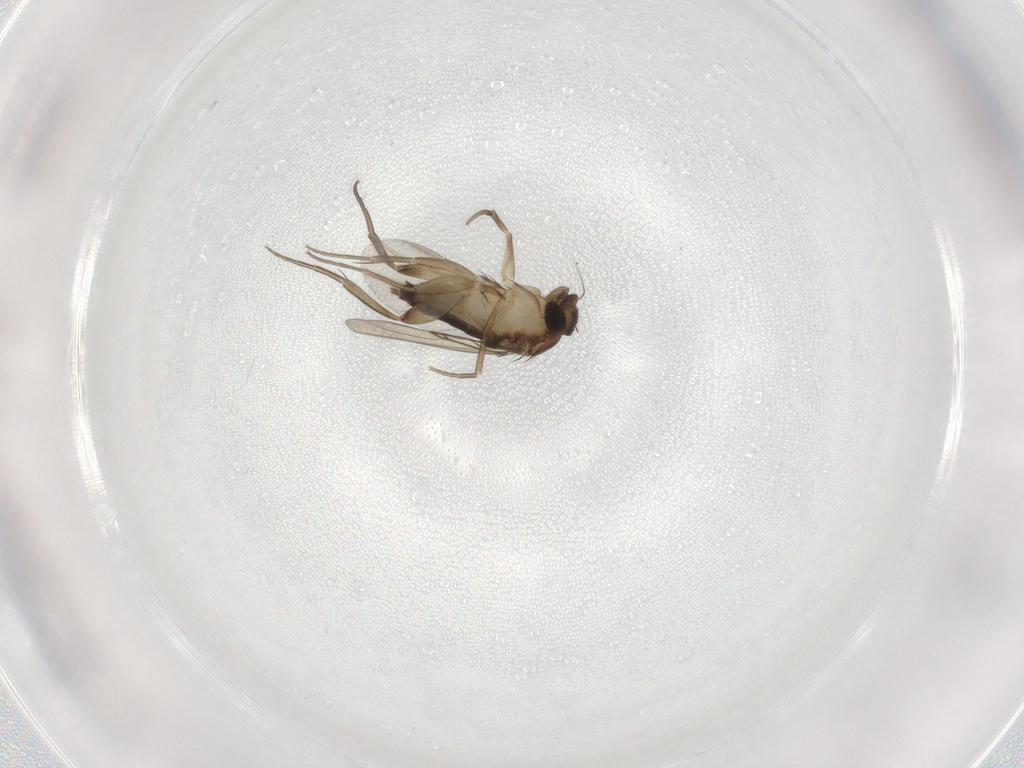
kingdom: Animalia
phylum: Arthropoda
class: Insecta
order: Diptera
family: Phoridae
